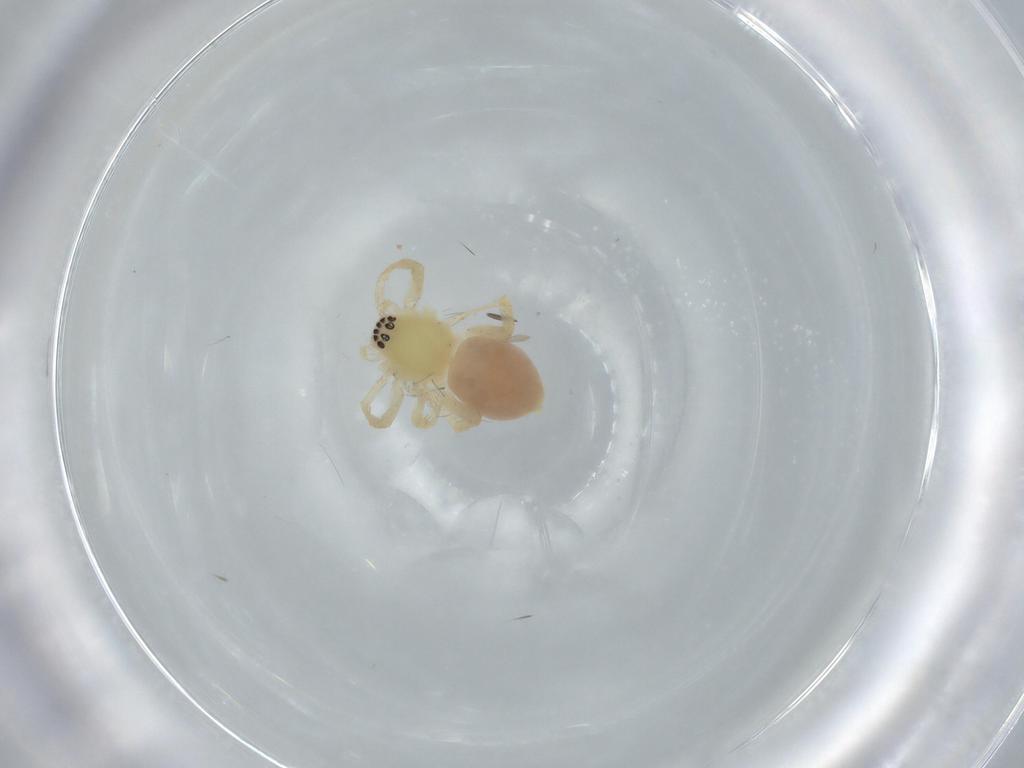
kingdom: Animalia
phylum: Arthropoda
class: Arachnida
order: Araneae
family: Anyphaenidae
